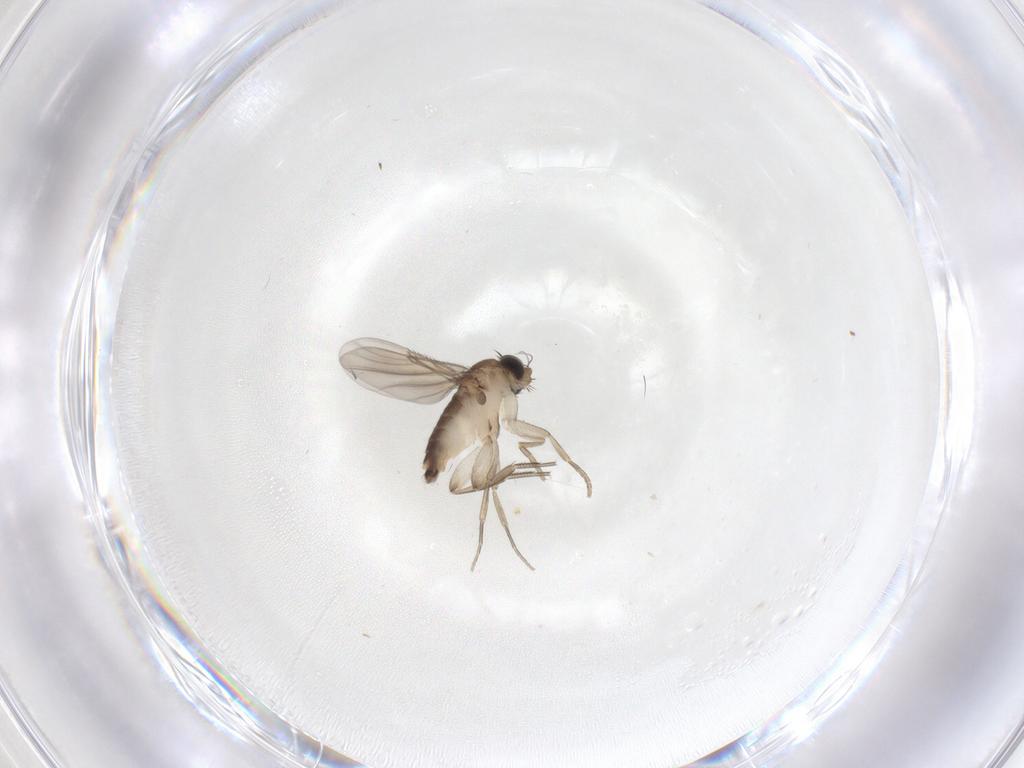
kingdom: Animalia
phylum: Arthropoda
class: Insecta
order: Diptera
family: Phoridae
